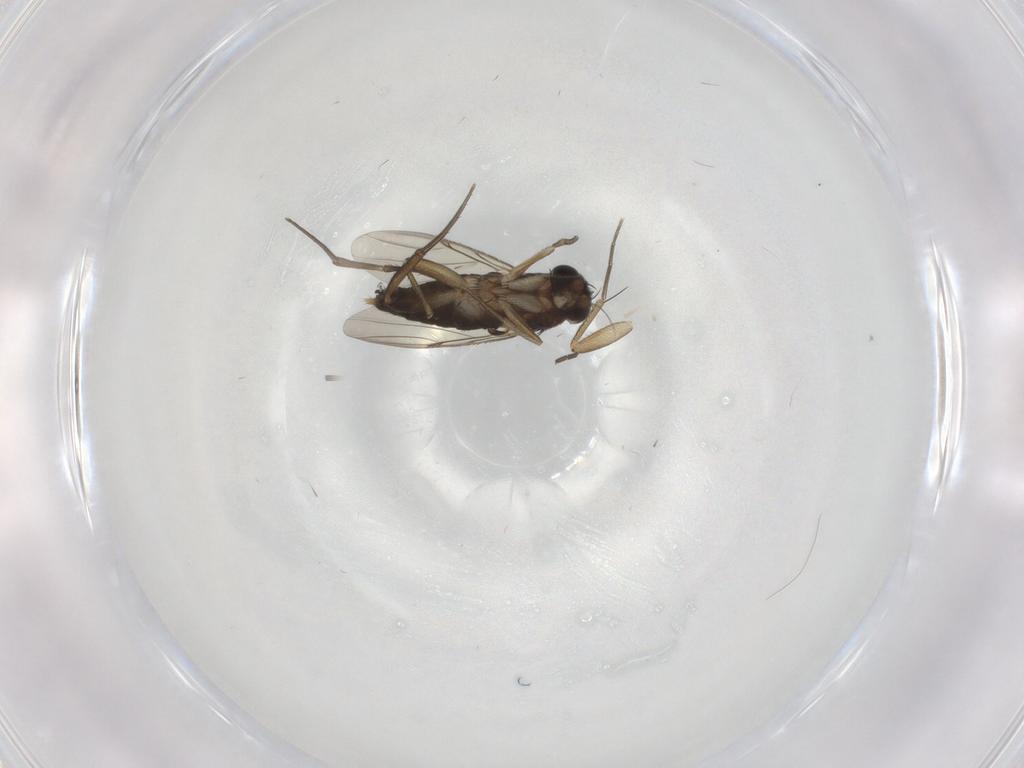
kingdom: Animalia
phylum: Arthropoda
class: Insecta
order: Diptera
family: Phoridae
